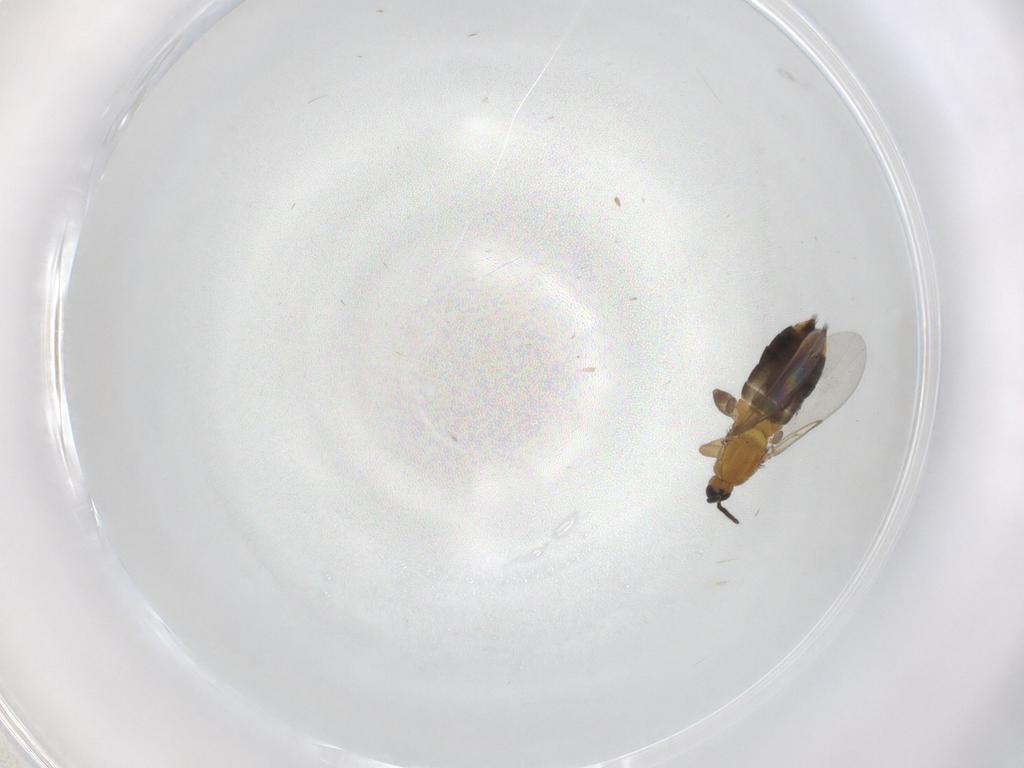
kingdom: Animalia
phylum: Arthropoda
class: Insecta
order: Diptera
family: Scatopsidae
